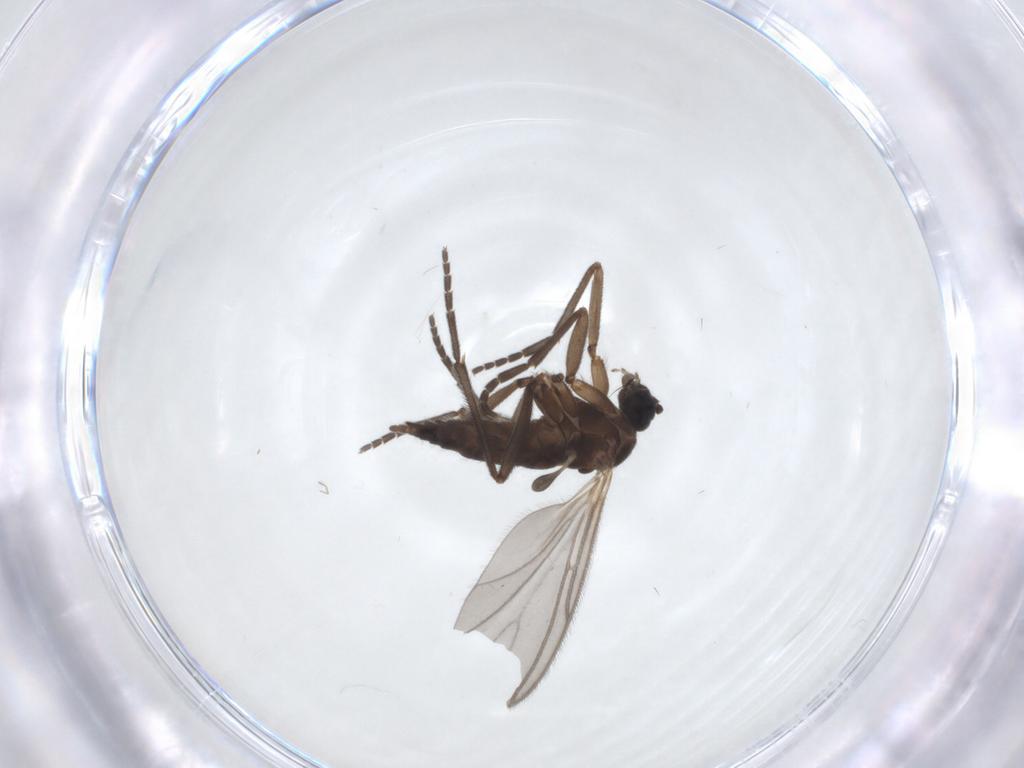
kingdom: Animalia
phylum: Arthropoda
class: Insecta
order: Diptera
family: Sciaridae
